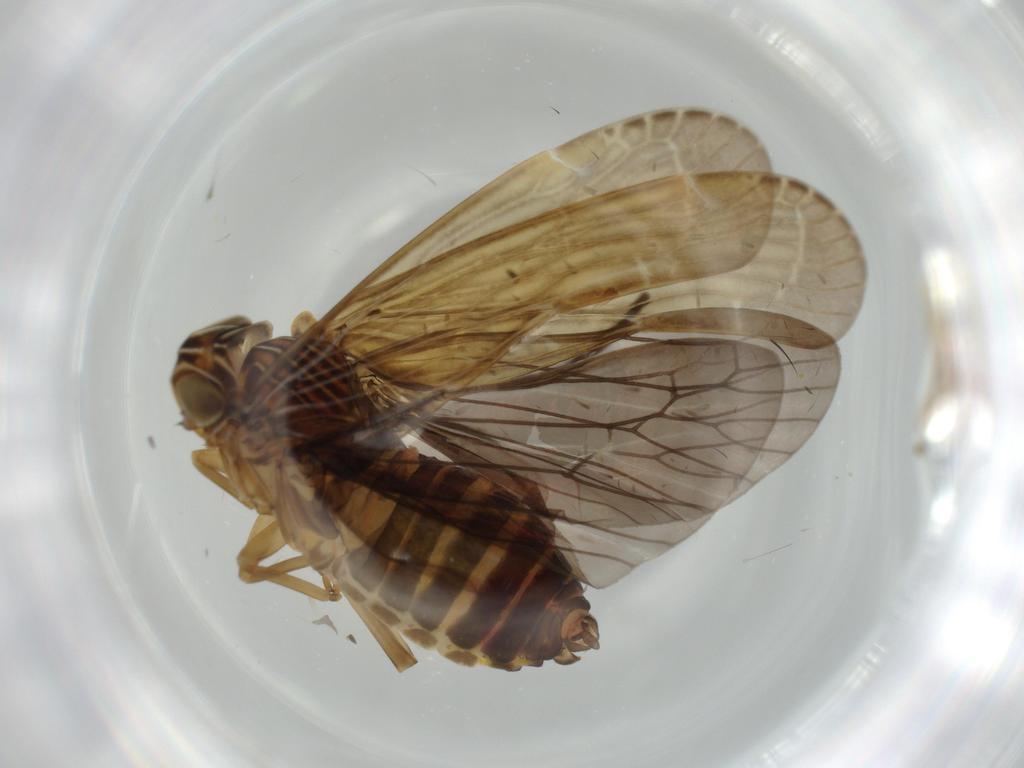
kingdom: Animalia
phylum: Arthropoda
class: Insecta
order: Hemiptera
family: Achilidae
